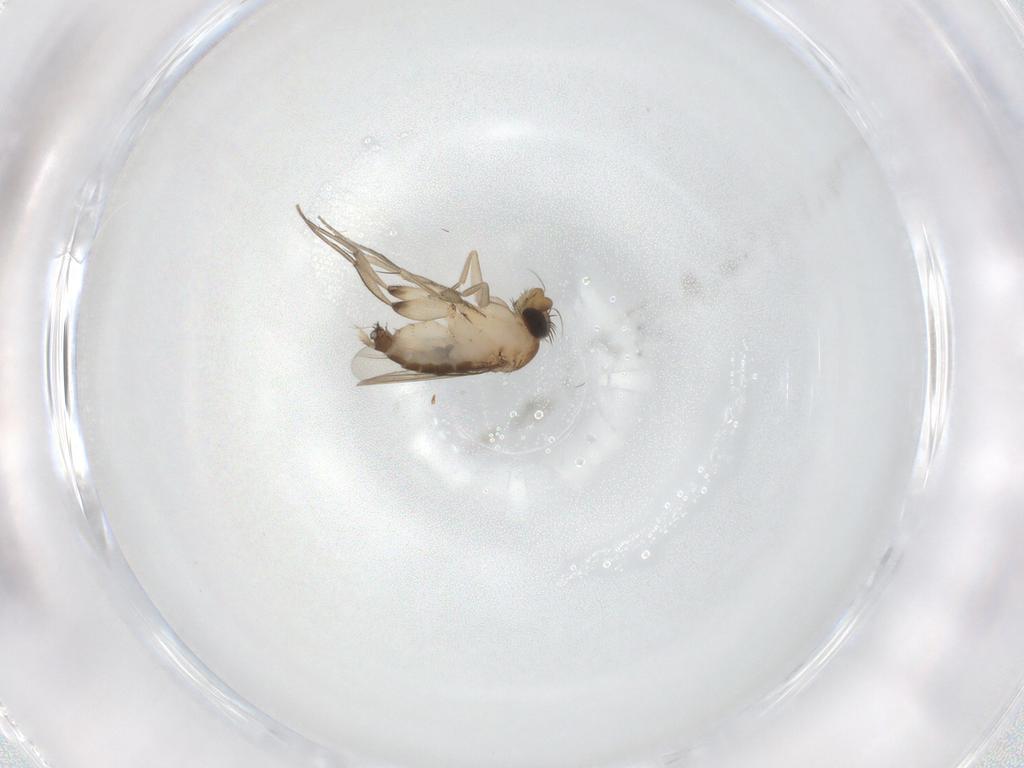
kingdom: Animalia
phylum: Arthropoda
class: Insecta
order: Diptera
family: Phoridae
